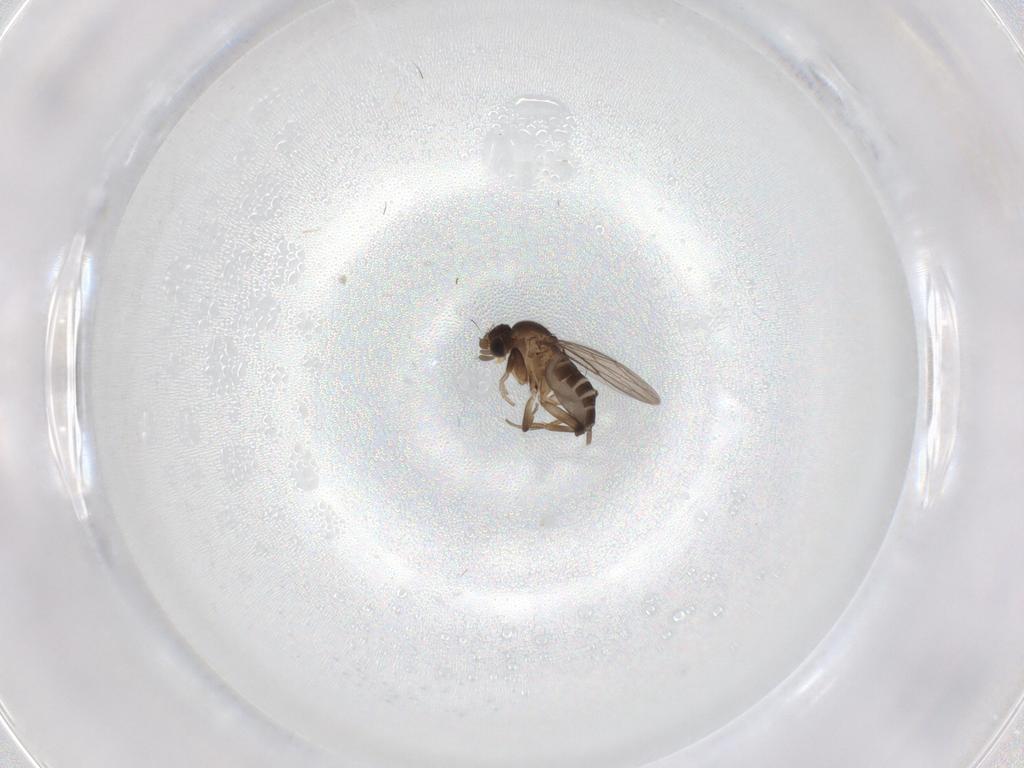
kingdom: Animalia
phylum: Arthropoda
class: Insecta
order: Diptera
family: Phoridae
